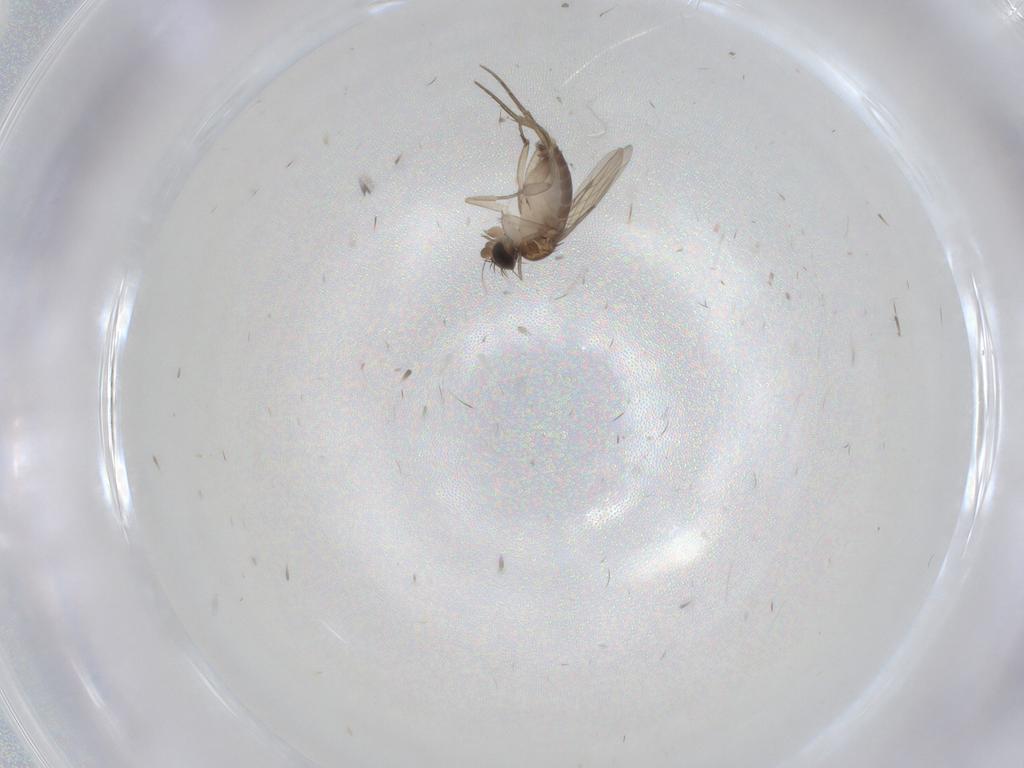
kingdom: Animalia
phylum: Arthropoda
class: Insecta
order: Diptera
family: Phoridae
